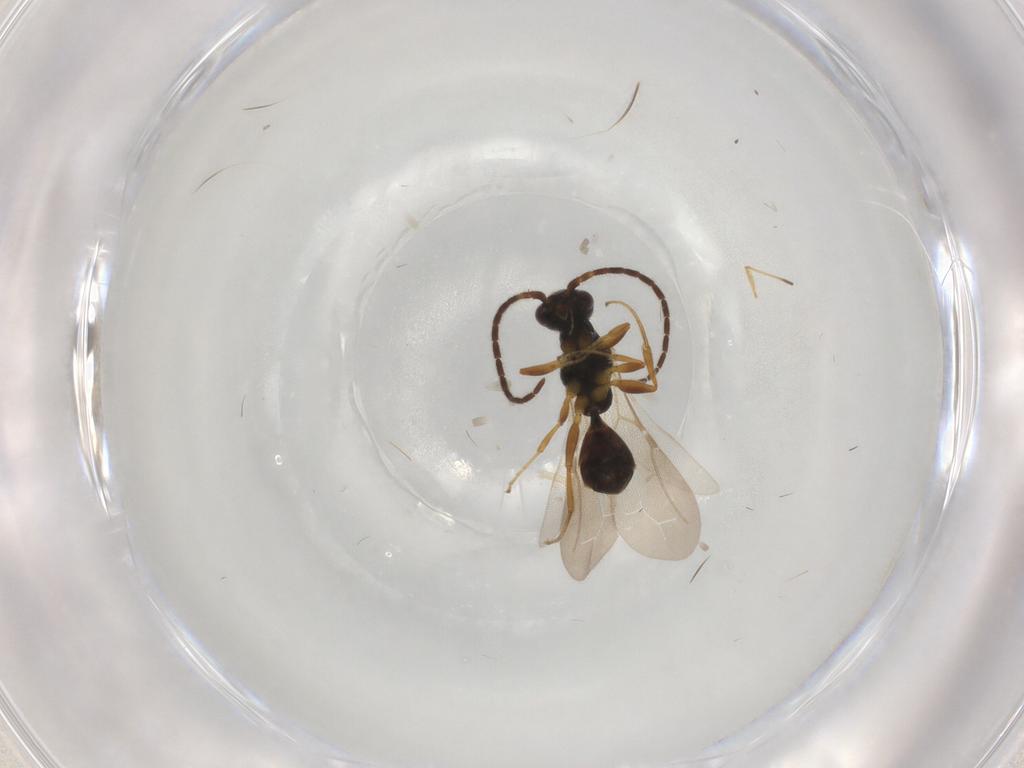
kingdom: Animalia
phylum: Arthropoda
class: Insecta
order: Hymenoptera
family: Bethylidae
